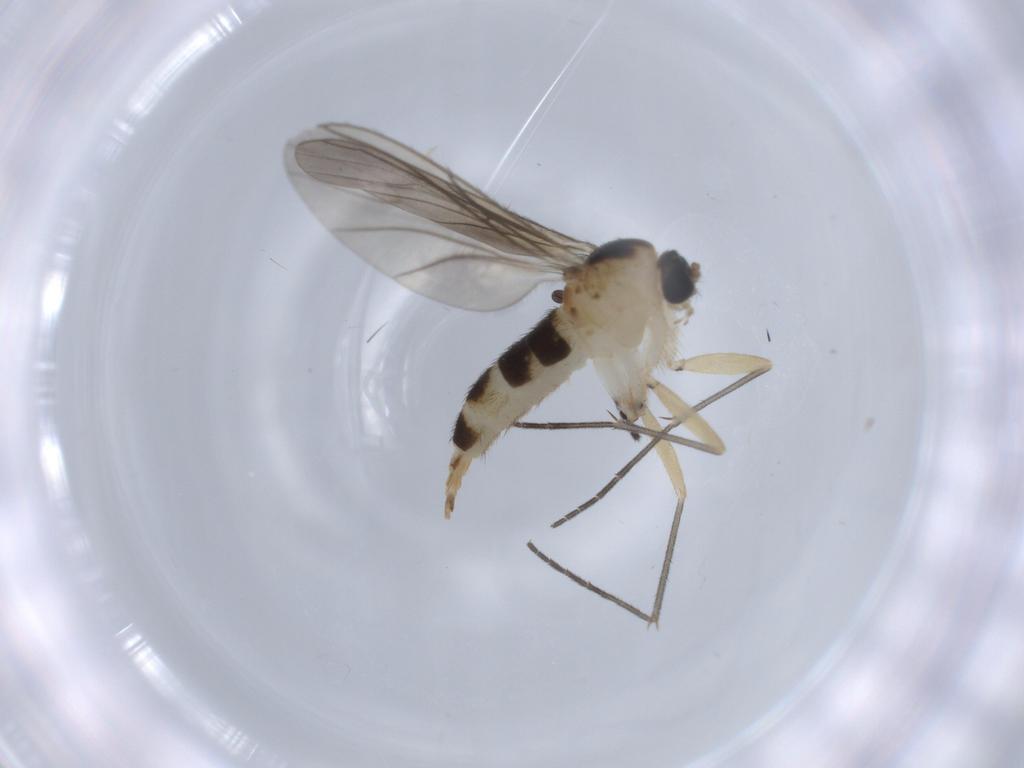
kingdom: Animalia
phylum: Arthropoda
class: Insecta
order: Diptera
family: Sciaridae
